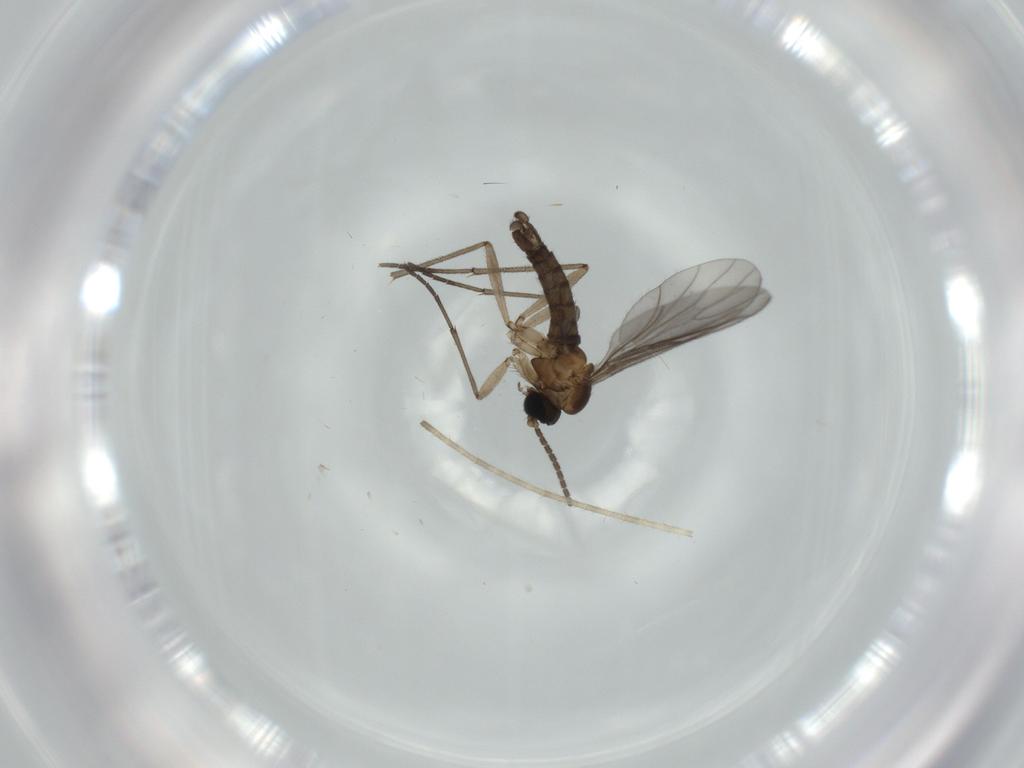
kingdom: Animalia
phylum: Arthropoda
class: Insecta
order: Diptera
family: Sciaridae
